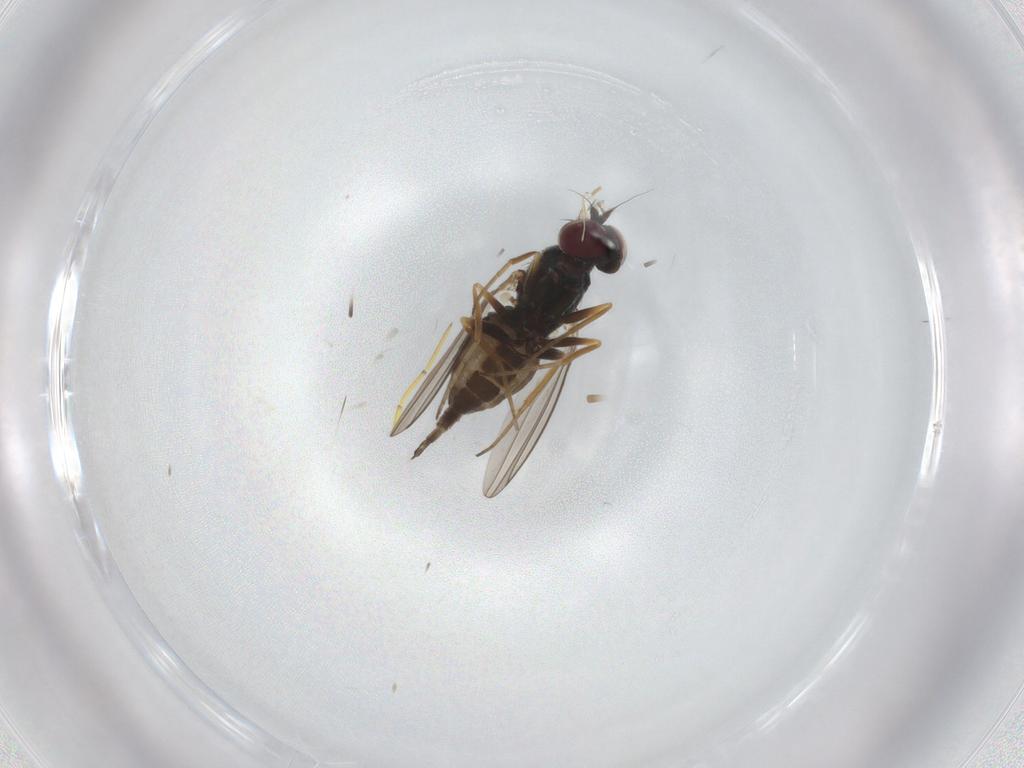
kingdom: Animalia
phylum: Arthropoda
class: Insecta
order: Diptera
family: Dolichopodidae
